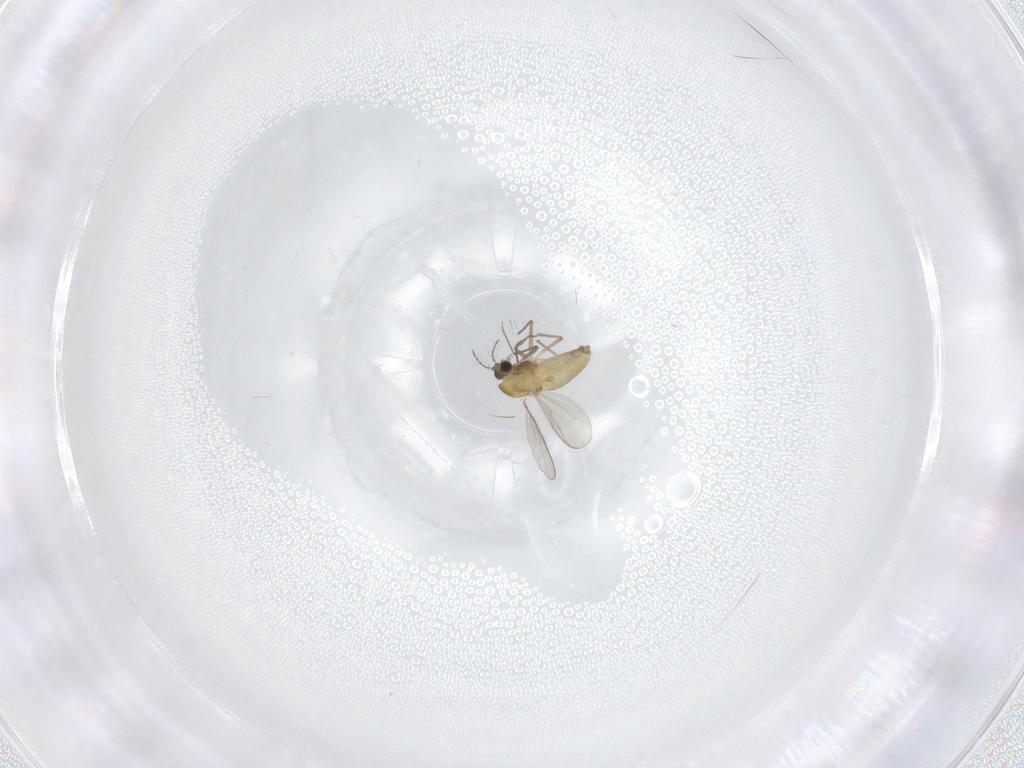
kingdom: Animalia
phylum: Arthropoda
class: Insecta
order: Diptera
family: Chironomidae
